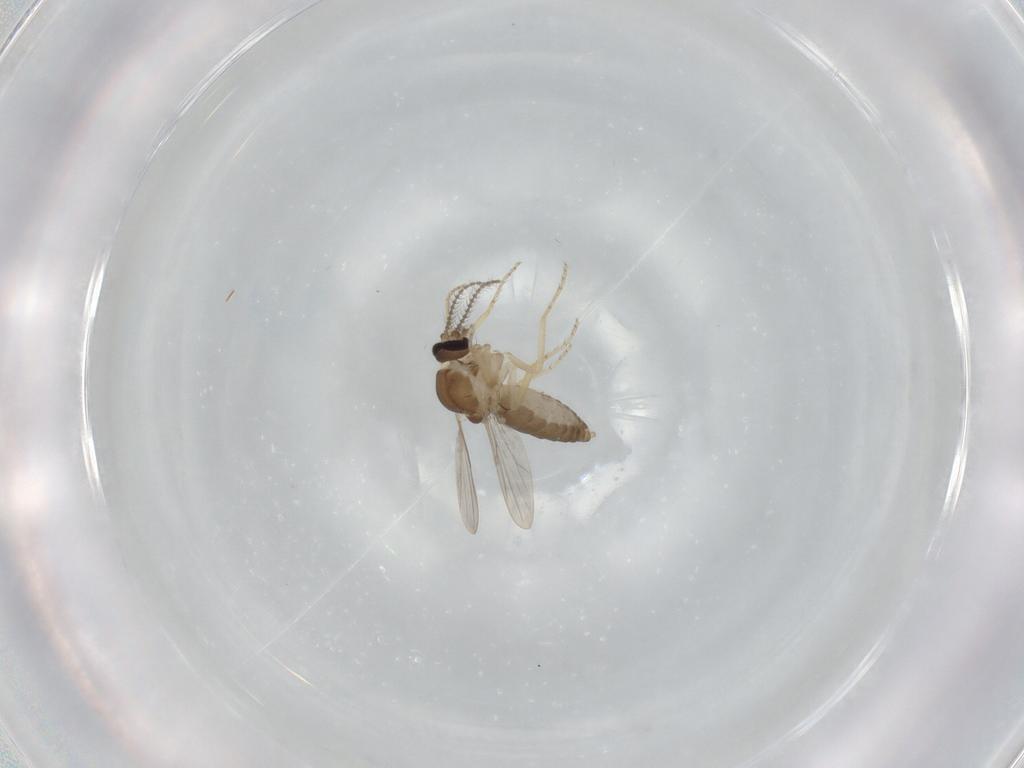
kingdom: Animalia
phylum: Arthropoda
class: Insecta
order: Diptera
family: Ceratopogonidae
